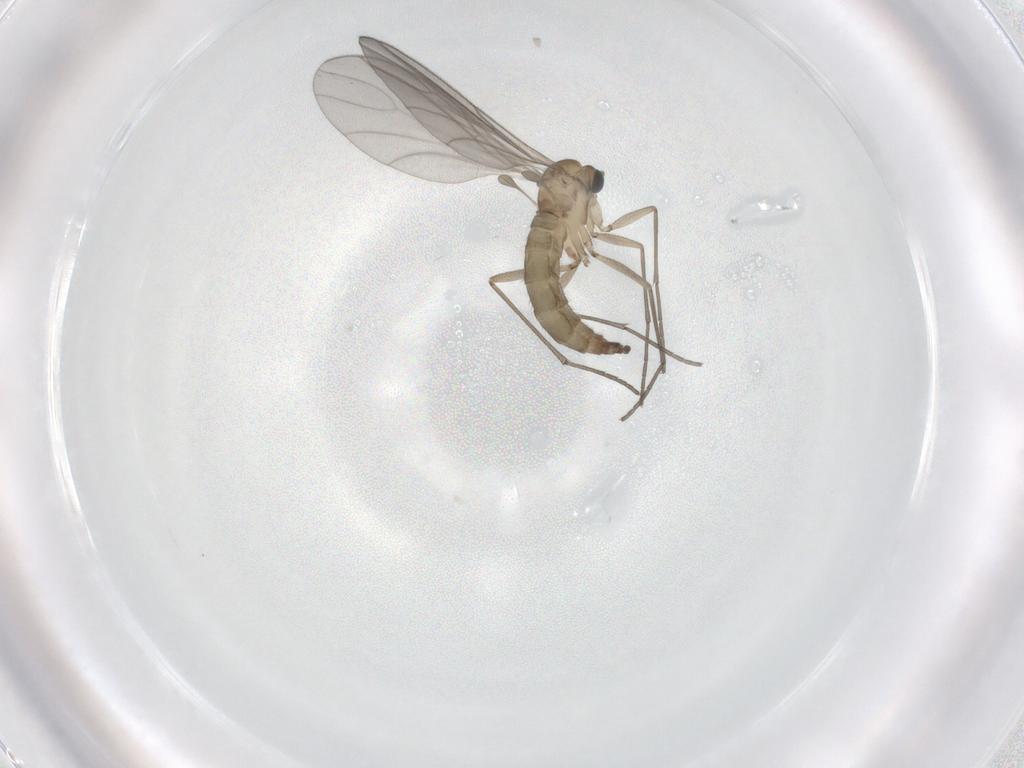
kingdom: Animalia
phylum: Arthropoda
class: Insecta
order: Diptera
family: Sciaridae
